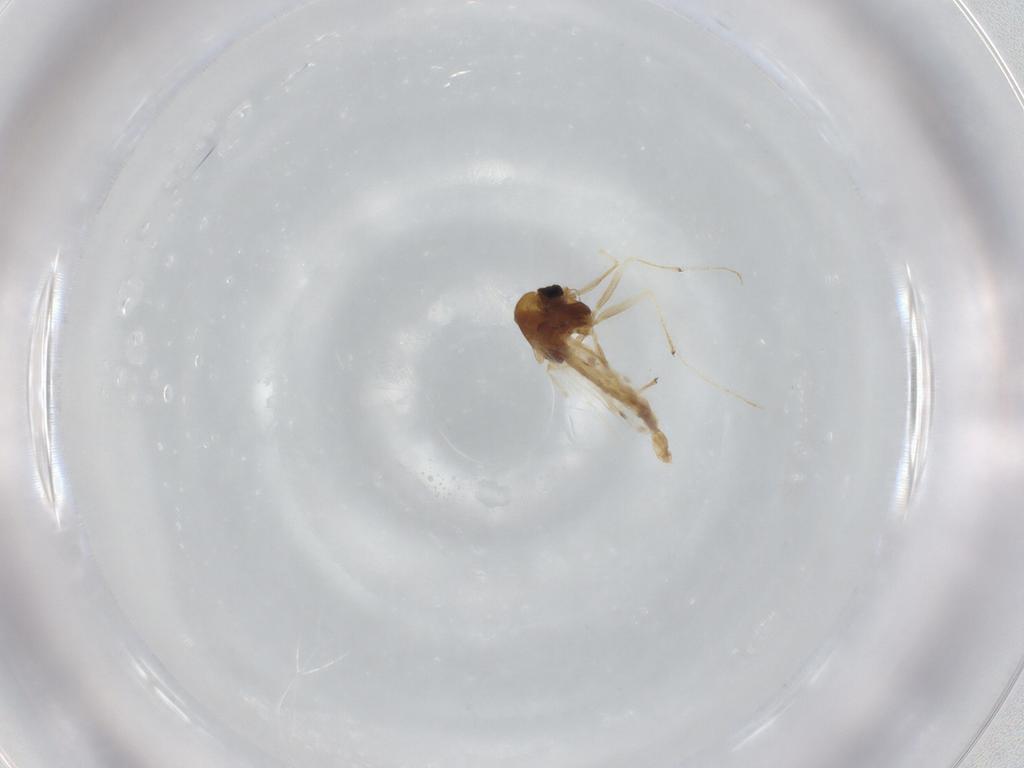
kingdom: Animalia
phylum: Arthropoda
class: Insecta
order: Diptera
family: Chironomidae
